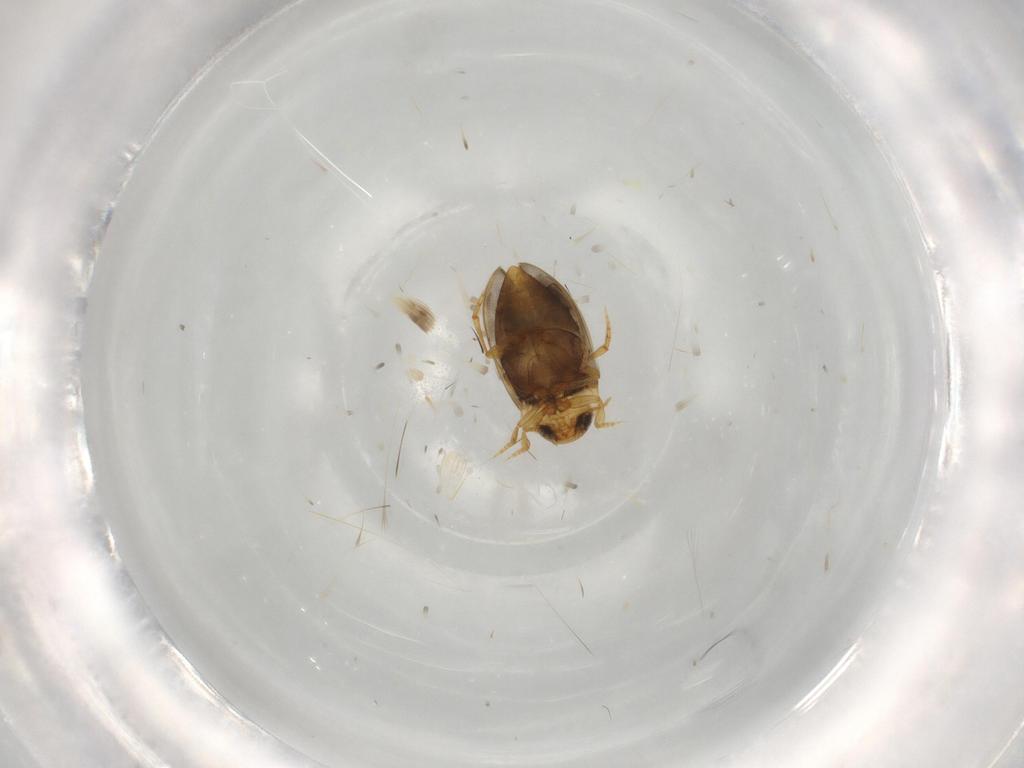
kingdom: Animalia
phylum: Arthropoda
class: Insecta
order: Coleoptera
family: Dytiscidae
